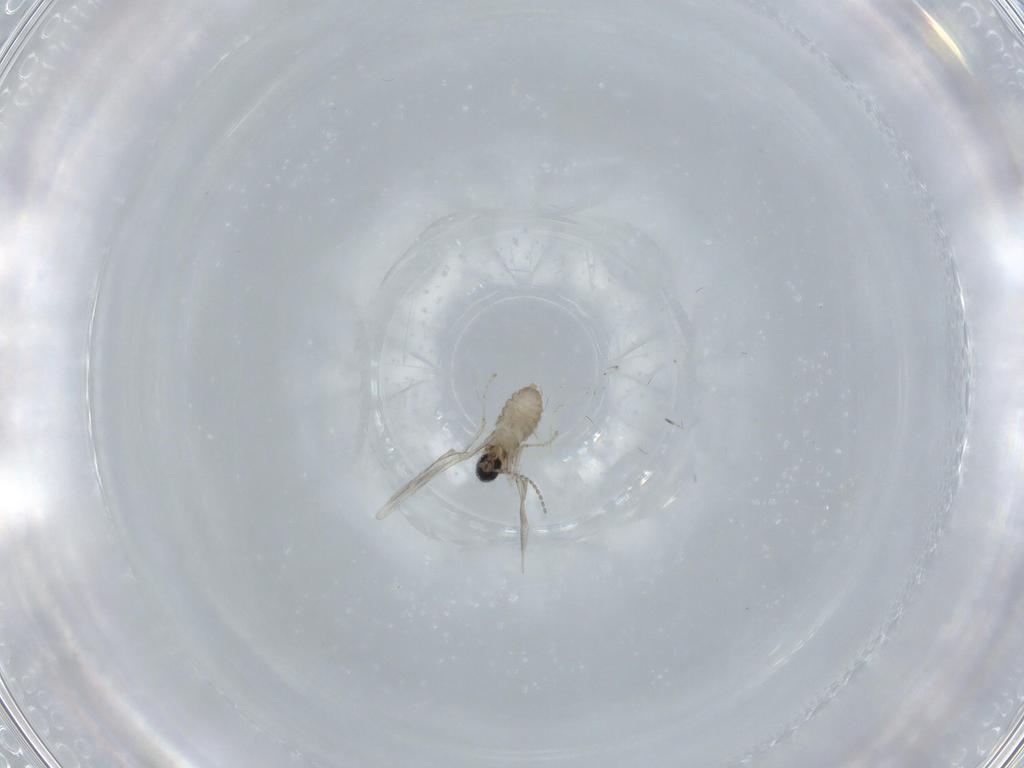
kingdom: Animalia
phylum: Arthropoda
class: Insecta
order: Diptera
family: Cecidomyiidae
